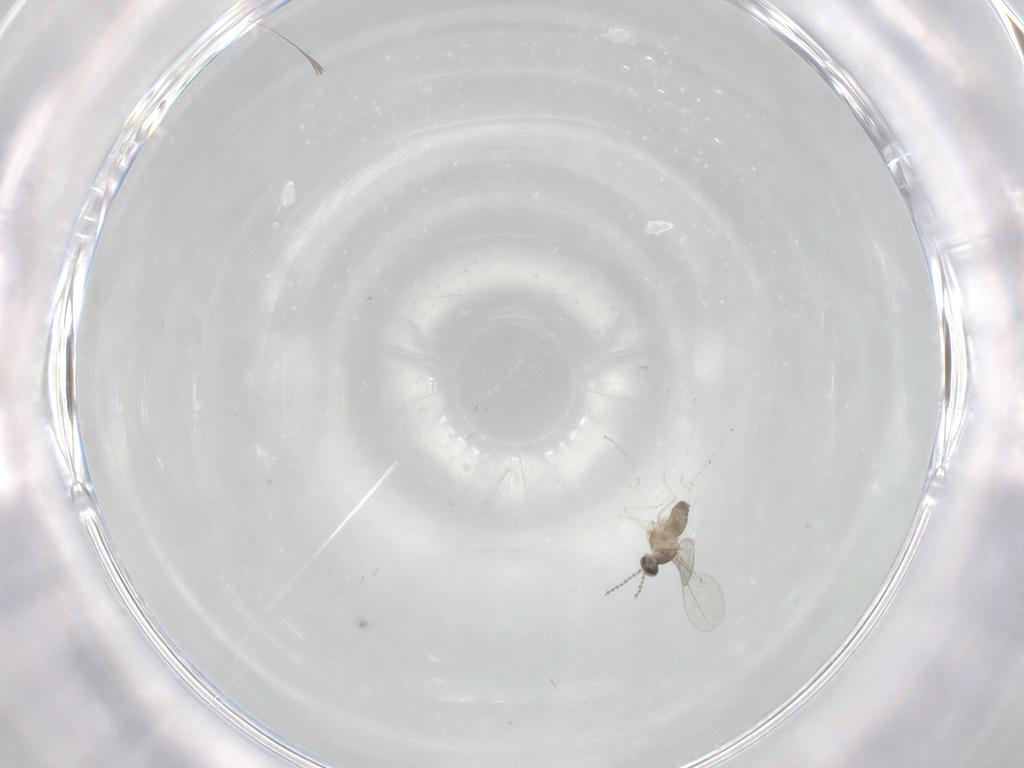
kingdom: Animalia
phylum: Arthropoda
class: Insecta
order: Diptera
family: Cecidomyiidae
